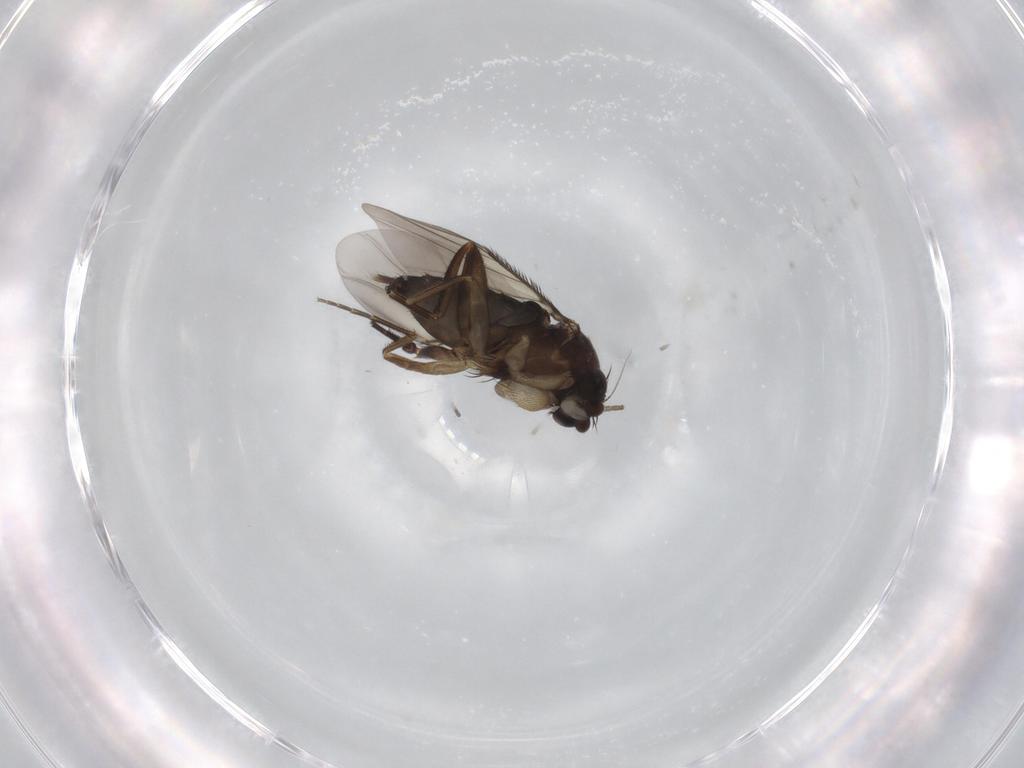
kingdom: Animalia
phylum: Arthropoda
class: Insecta
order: Diptera
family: Phoridae
